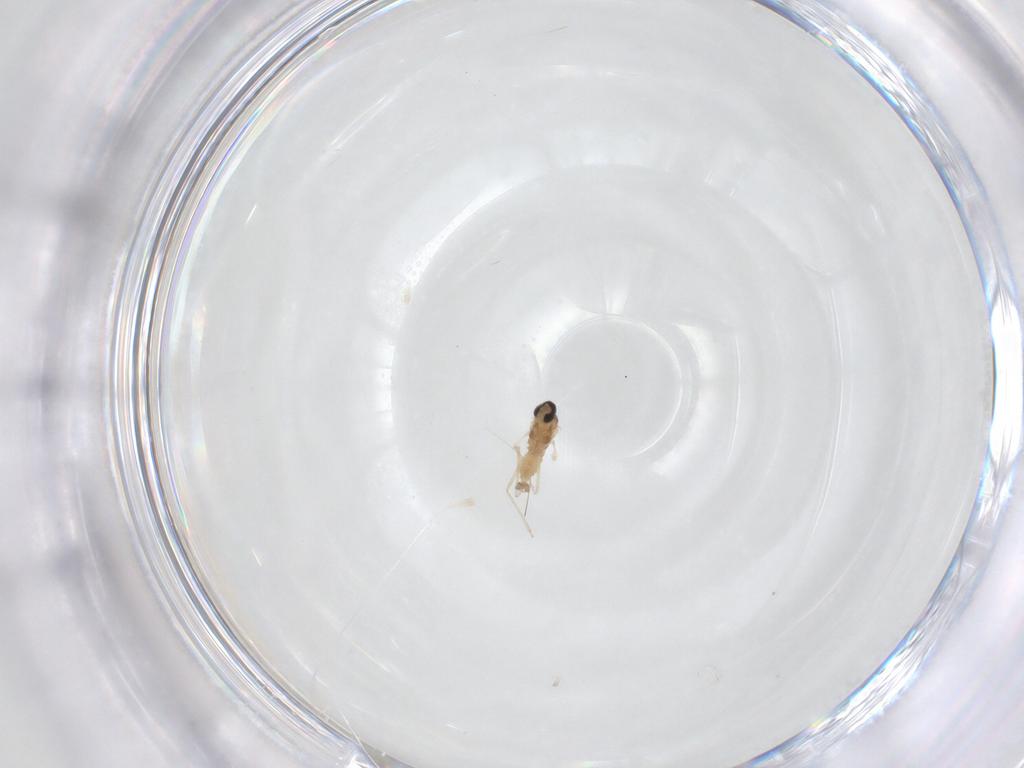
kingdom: Animalia
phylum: Arthropoda
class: Insecta
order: Diptera
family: Cecidomyiidae
